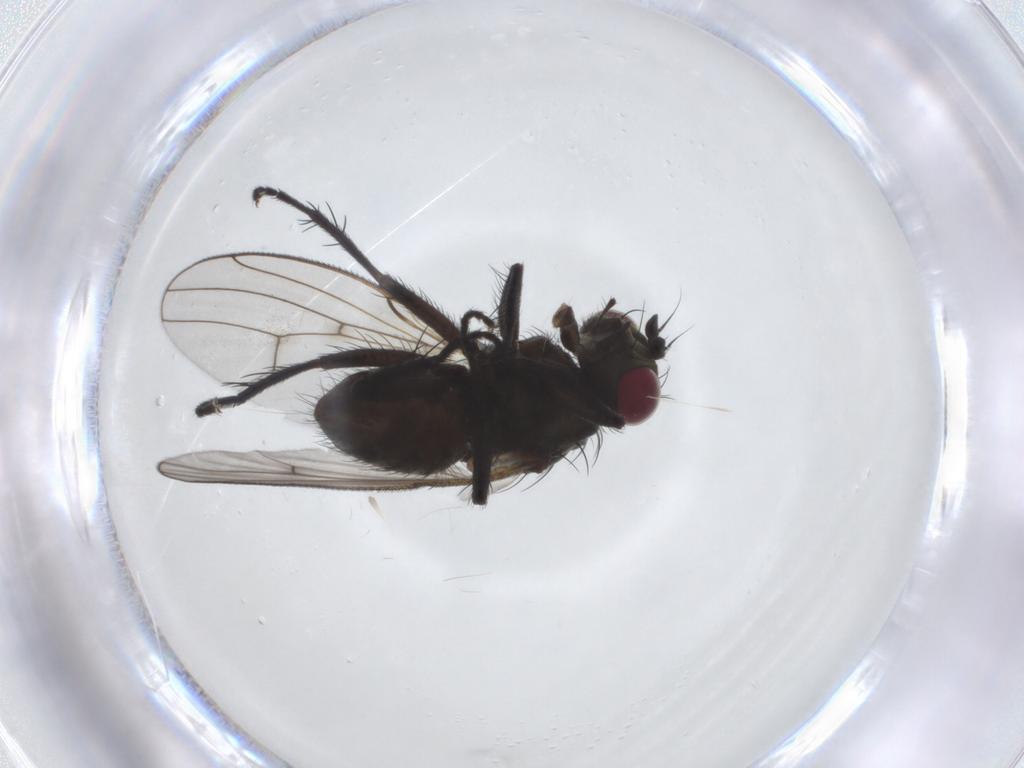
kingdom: Animalia
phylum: Arthropoda
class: Insecta
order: Diptera
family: Muscidae
